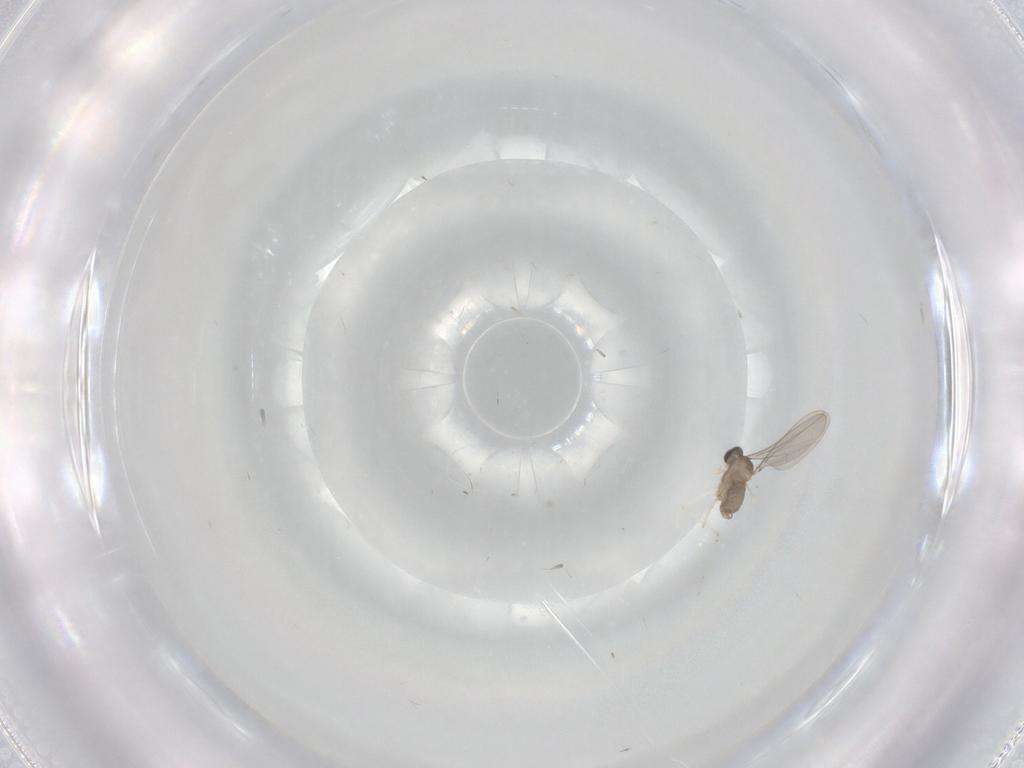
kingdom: Animalia
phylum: Arthropoda
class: Insecta
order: Diptera
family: Cecidomyiidae
